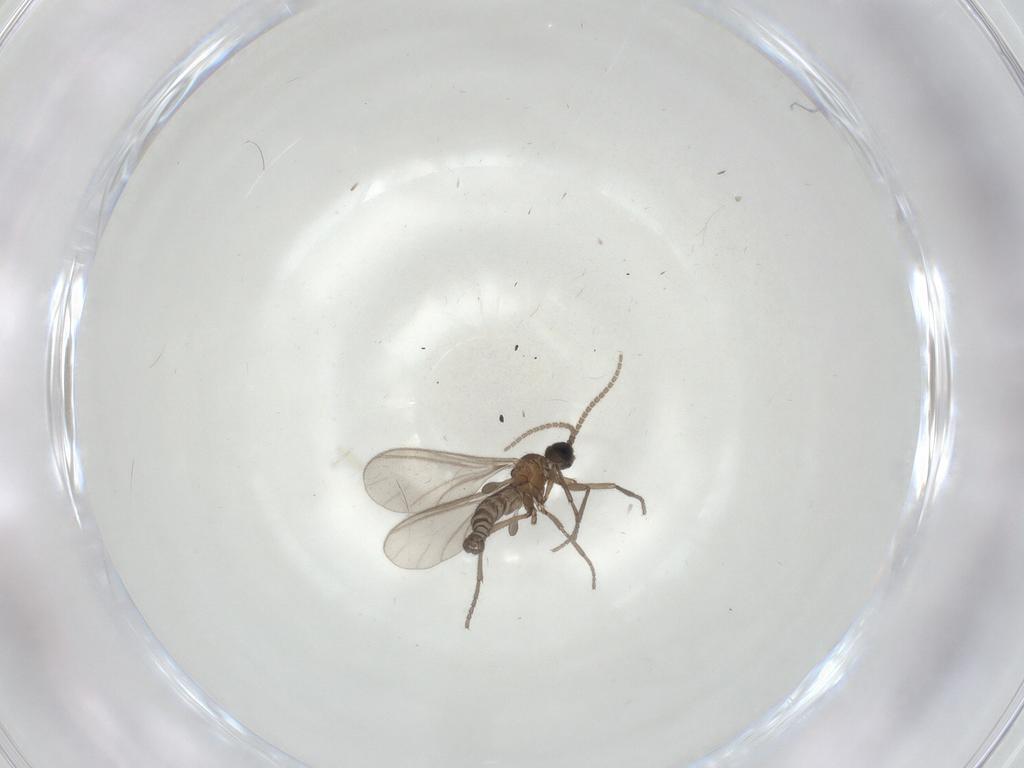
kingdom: Animalia
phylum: Arthropoda
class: Insecta
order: Diptera
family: Sciaridae
